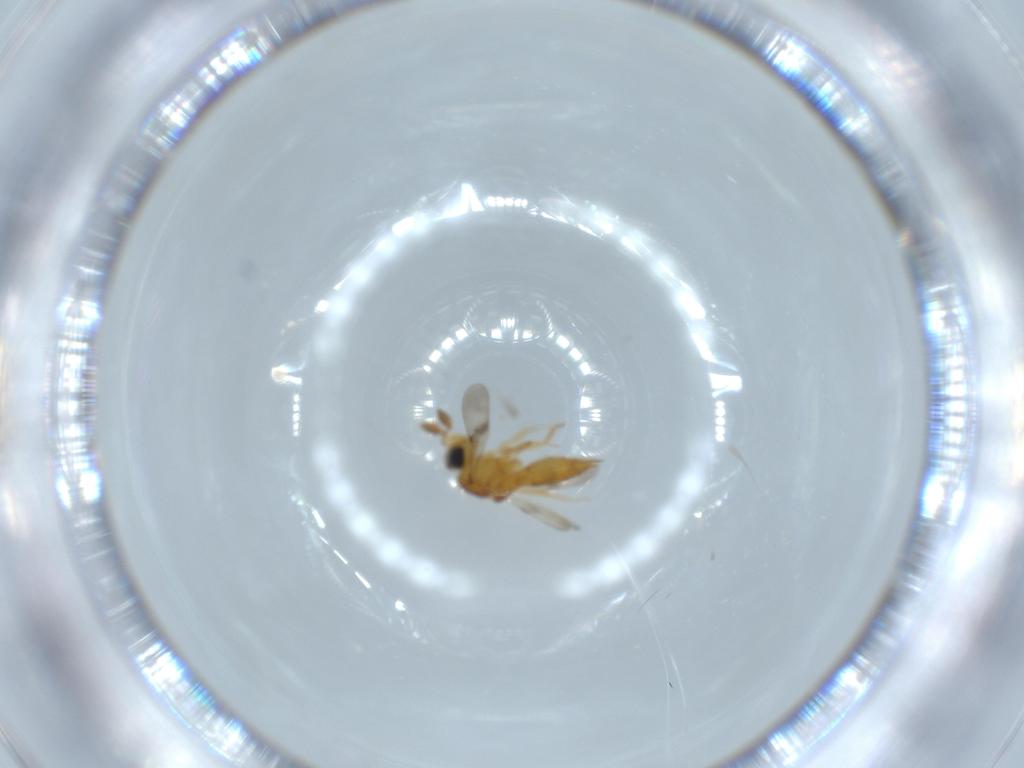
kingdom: Animalia
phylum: Arthropoda
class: Insecta
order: Hymenoptera
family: Scelionidae
